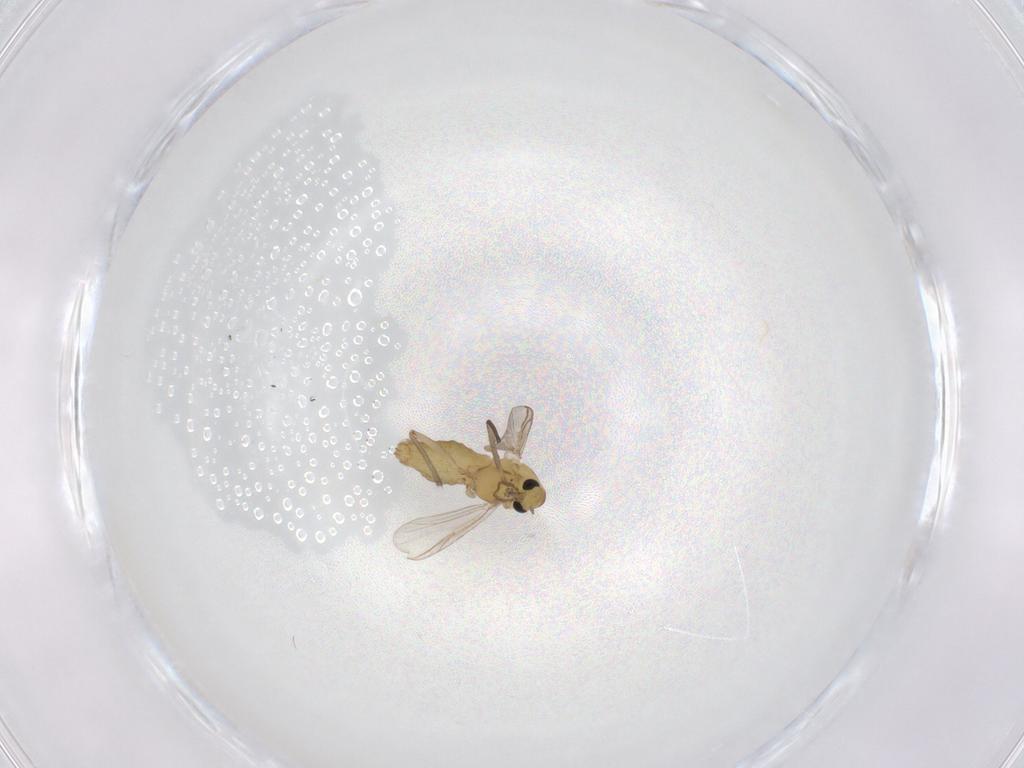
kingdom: Animalia
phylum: Arthropoda
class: Insecta
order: Diptera
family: Chironomidae
